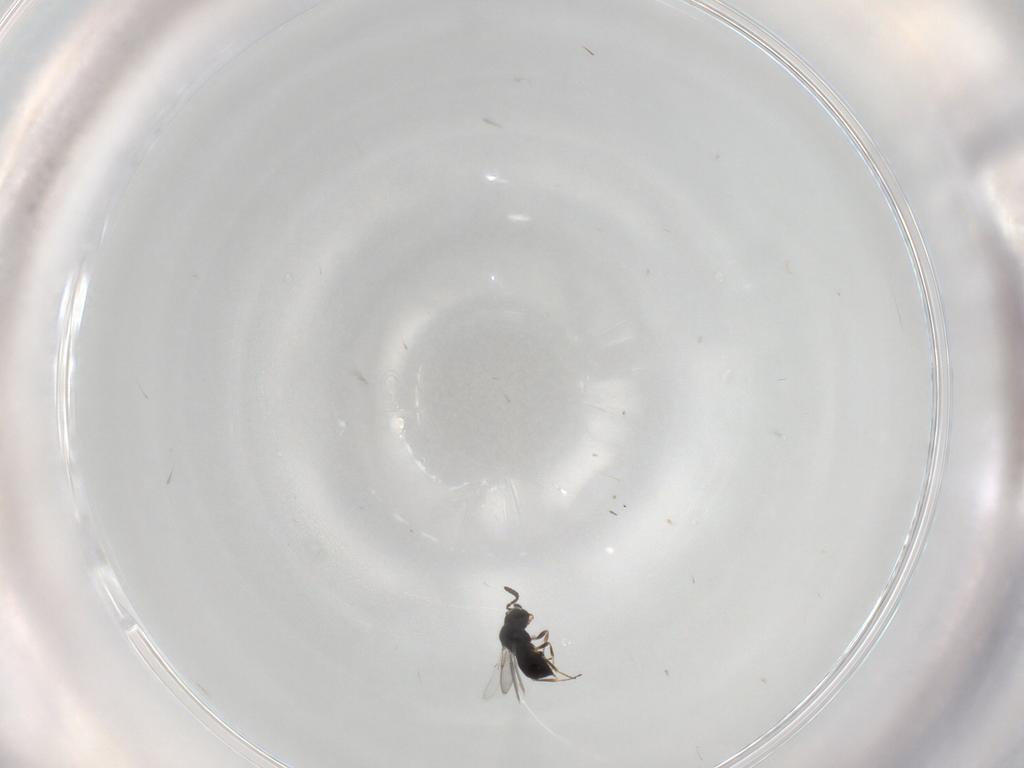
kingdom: Animalia
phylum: Arthropoda
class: Insecta
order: Hymenoptera
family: Scelionidae
